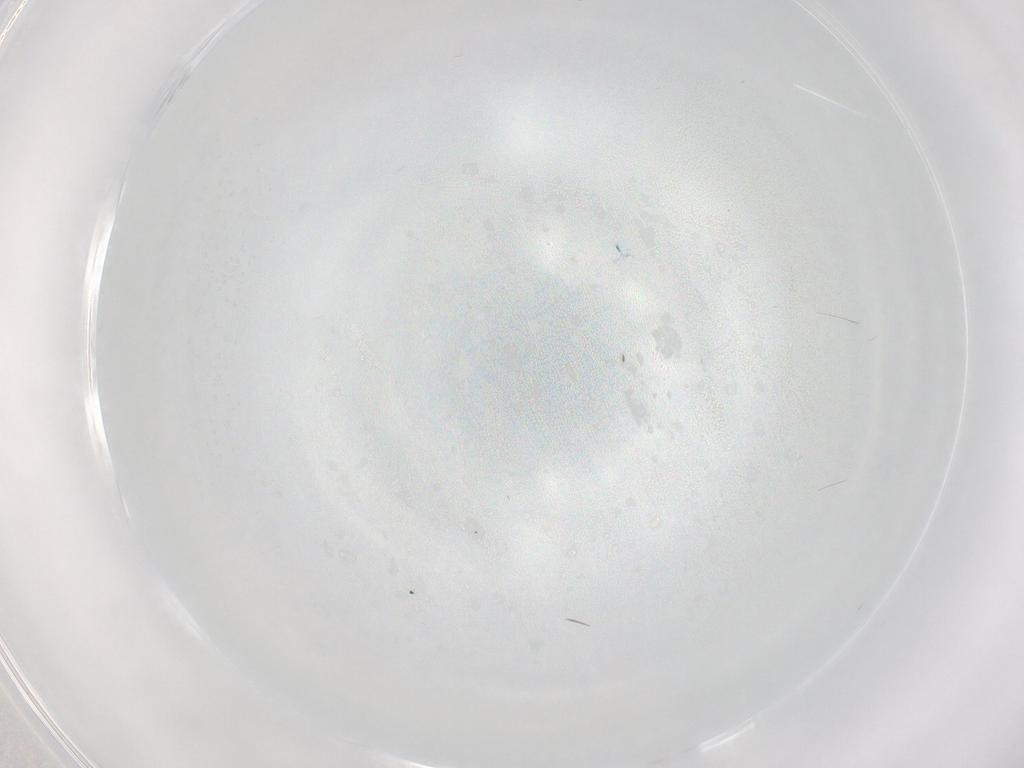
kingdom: Animalia
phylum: Arthropoda
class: Insecta
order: Diptera
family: Cecidomyiidae
